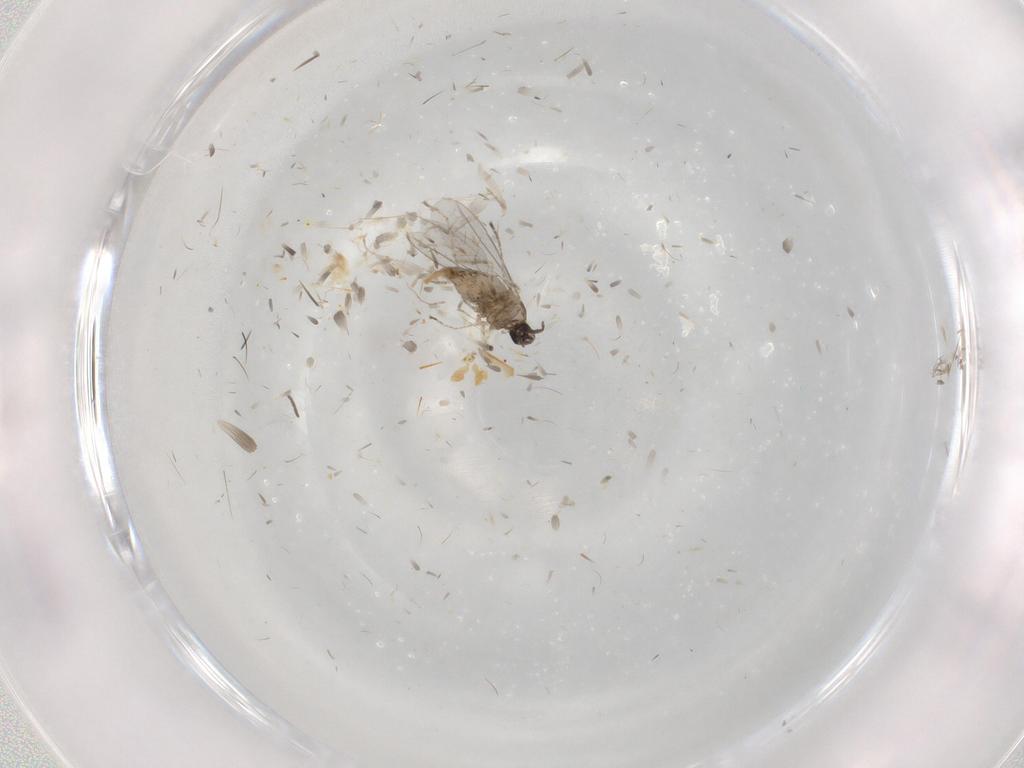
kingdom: Animalia
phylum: Arthropoda
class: Insecta
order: Diptera
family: Ceratopogonidae
